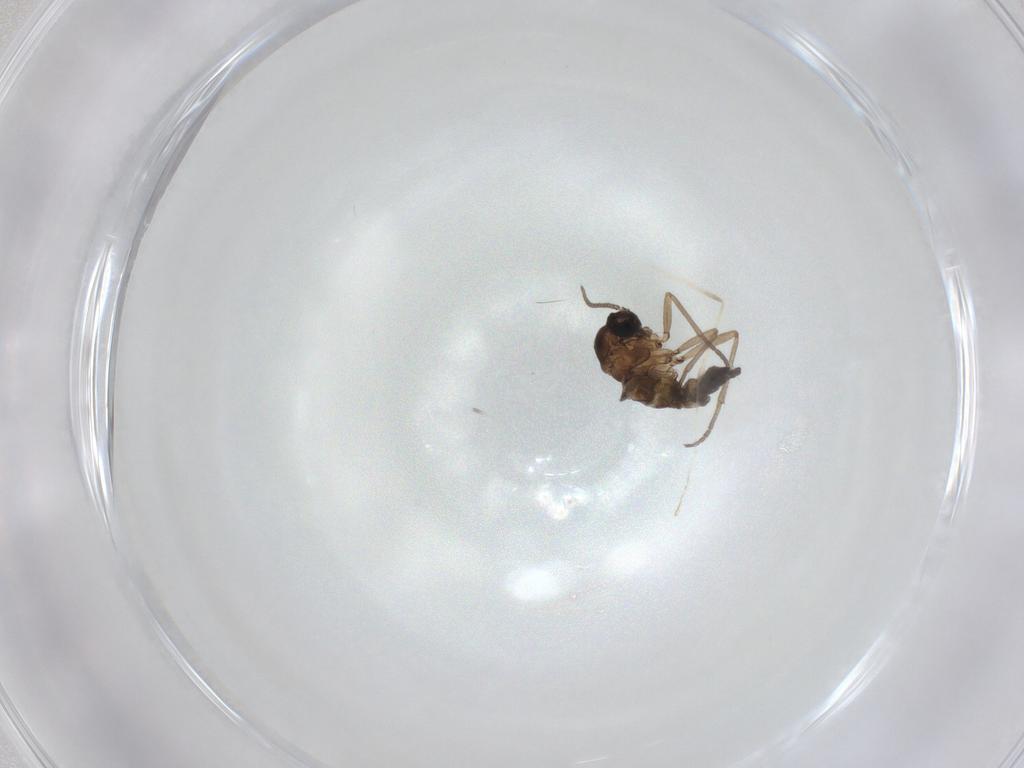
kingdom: Animalia
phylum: Arthropoda
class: Insecta
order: Diptera
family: Sciaridae
